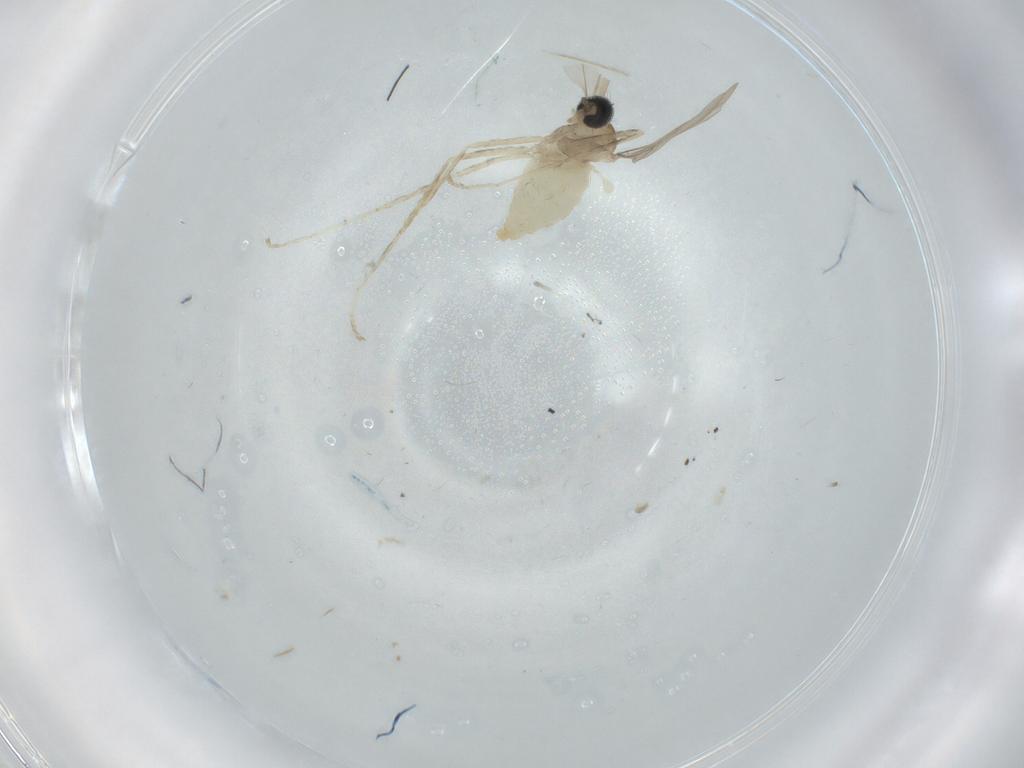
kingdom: Animalia
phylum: Arthropoda
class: Insecta
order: Diptera
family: Cecidomyiidae
